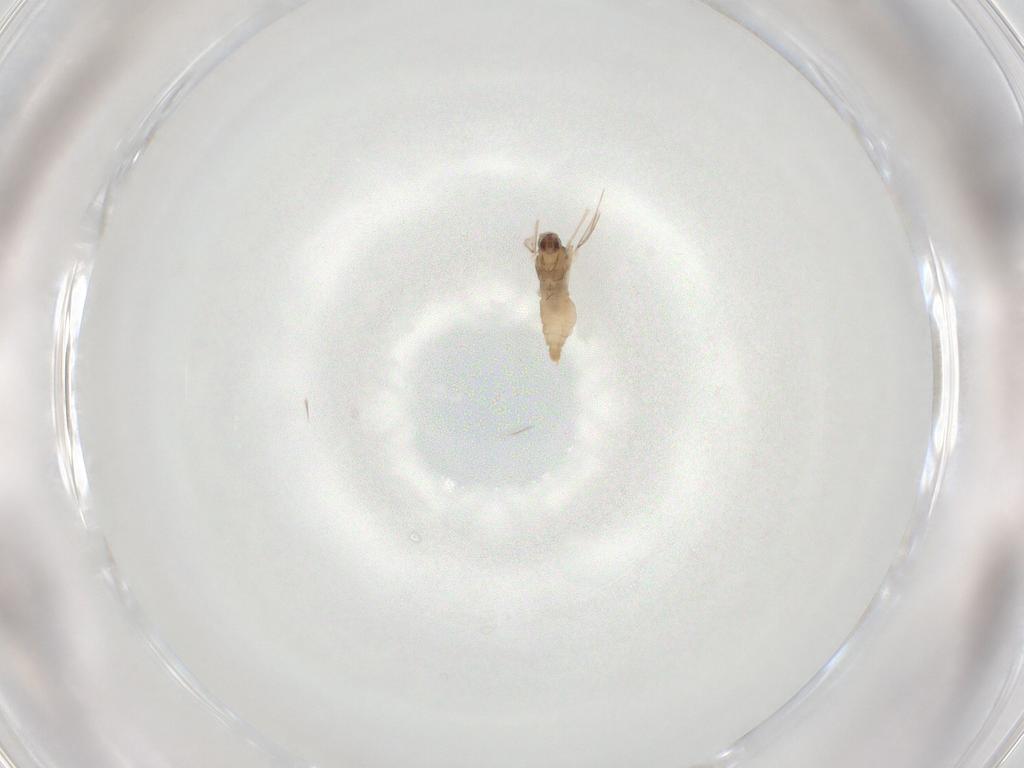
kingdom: Animalia
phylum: Arthropoda
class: Insecta
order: Diptera
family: Cecidomyiidae
